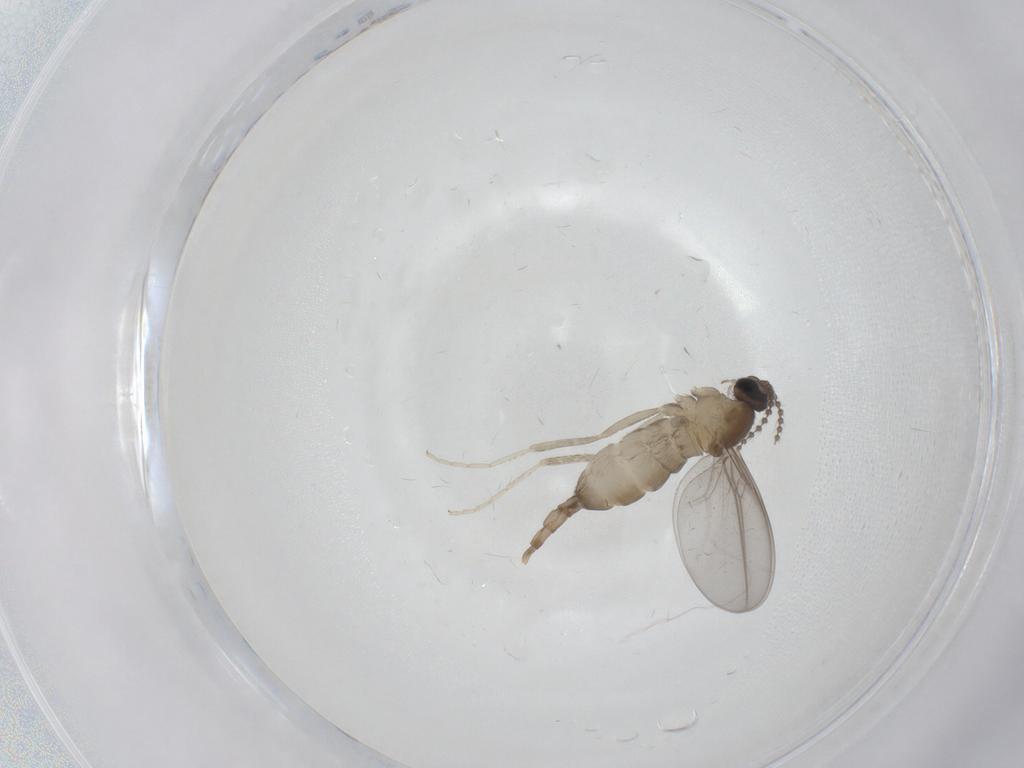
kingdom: Animalia
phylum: Arthropoda
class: Insecta
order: Diptera
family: Cecidomyiidae
